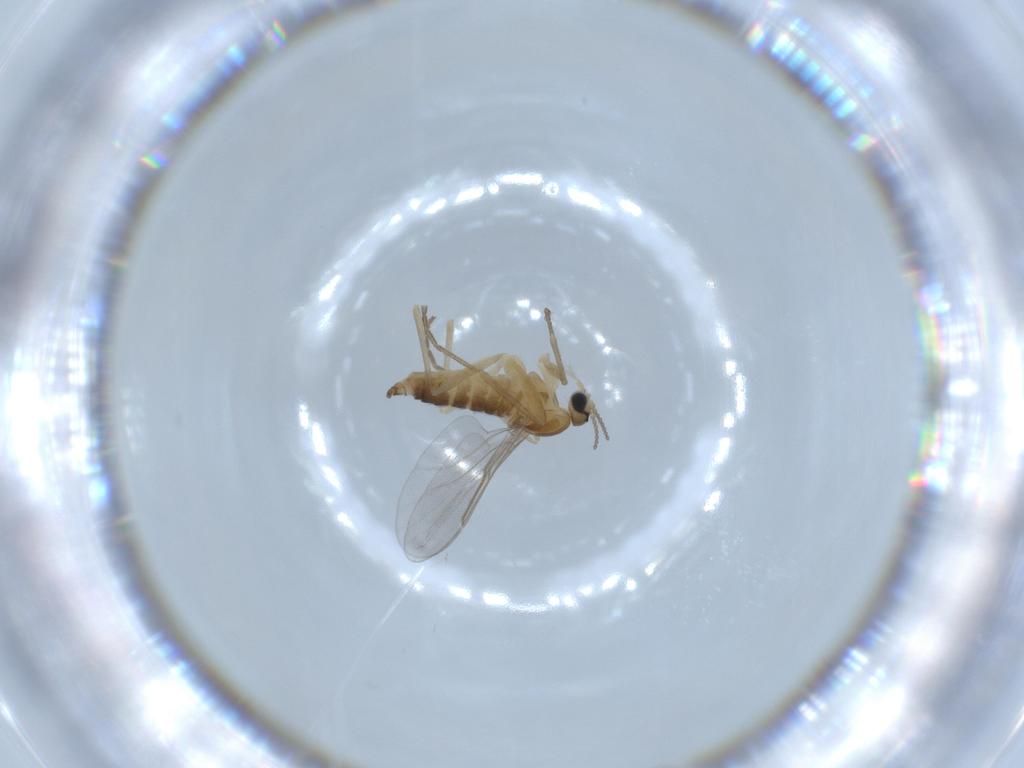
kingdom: Animalia
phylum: Arthropoda
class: Insecta
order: Diptera
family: Cecidomyiidae
